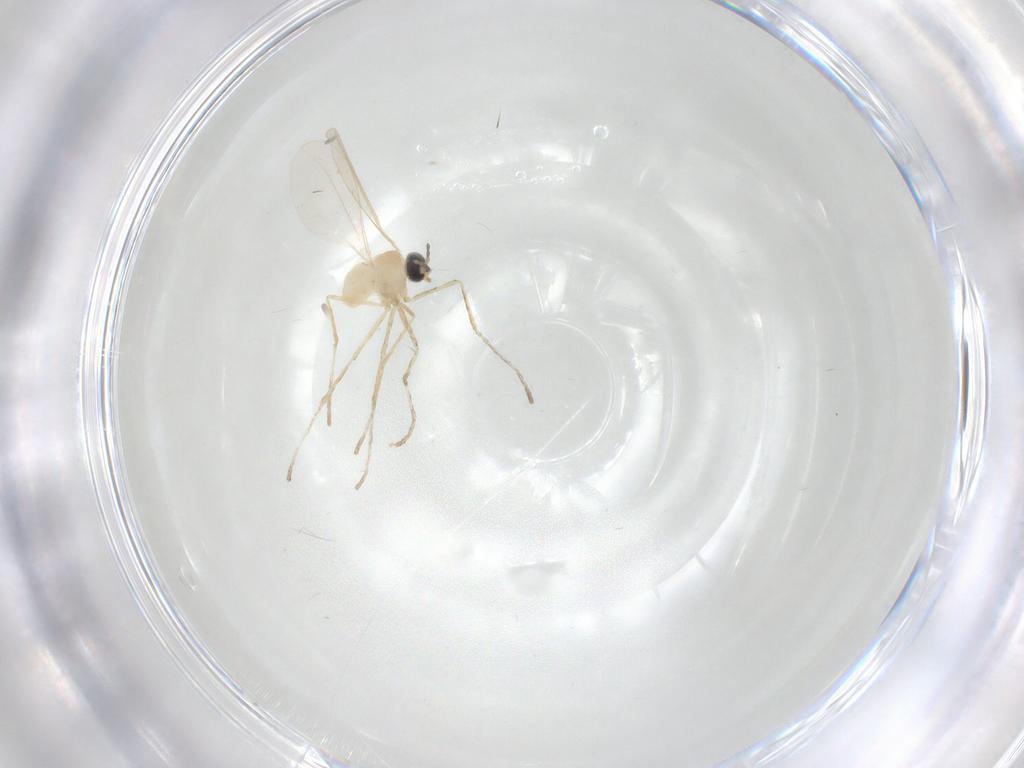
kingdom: Animalia
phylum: Arthropoda
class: Insecta
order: Diptera
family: Cecidomyiidae
